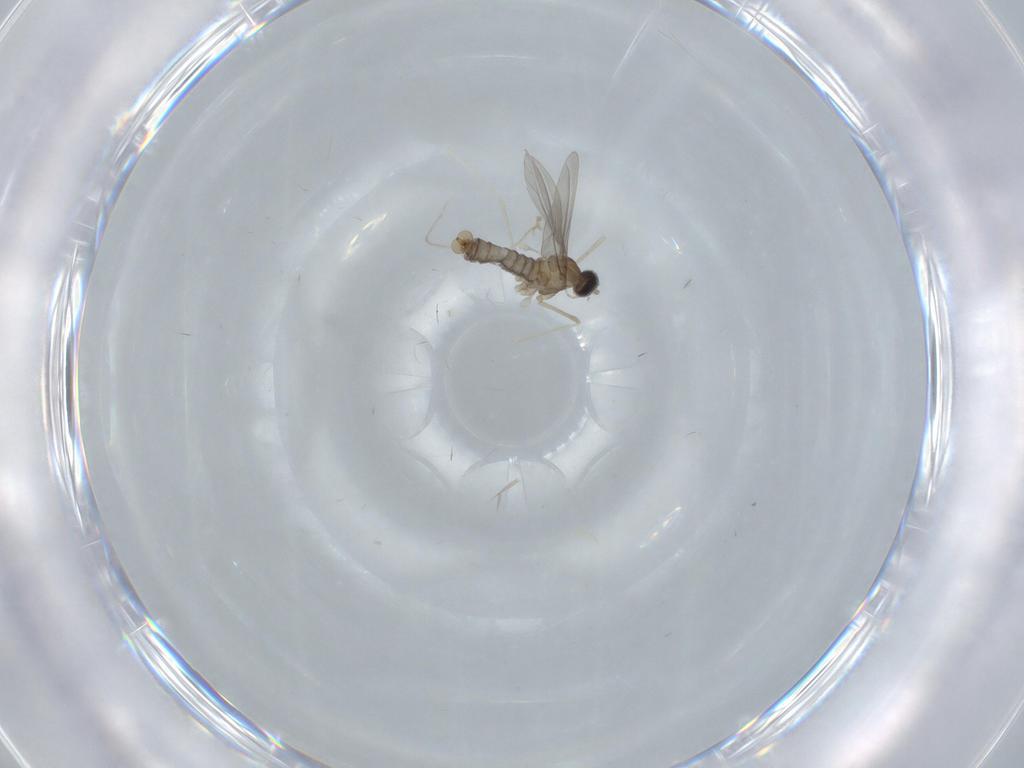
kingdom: Animalia
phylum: Arthropoda
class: Insecta
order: Diptera
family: Cecidomyiidae
